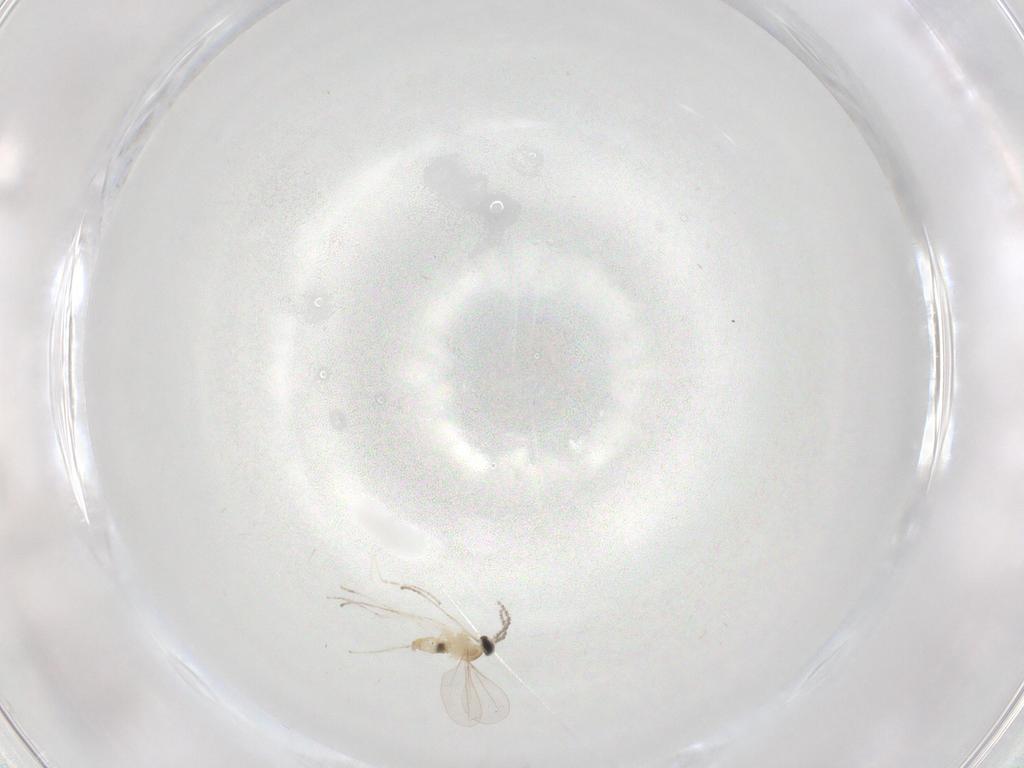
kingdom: Animalia
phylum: Arthropoda
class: Insecta
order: Diptera
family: Cecidomyiidae
